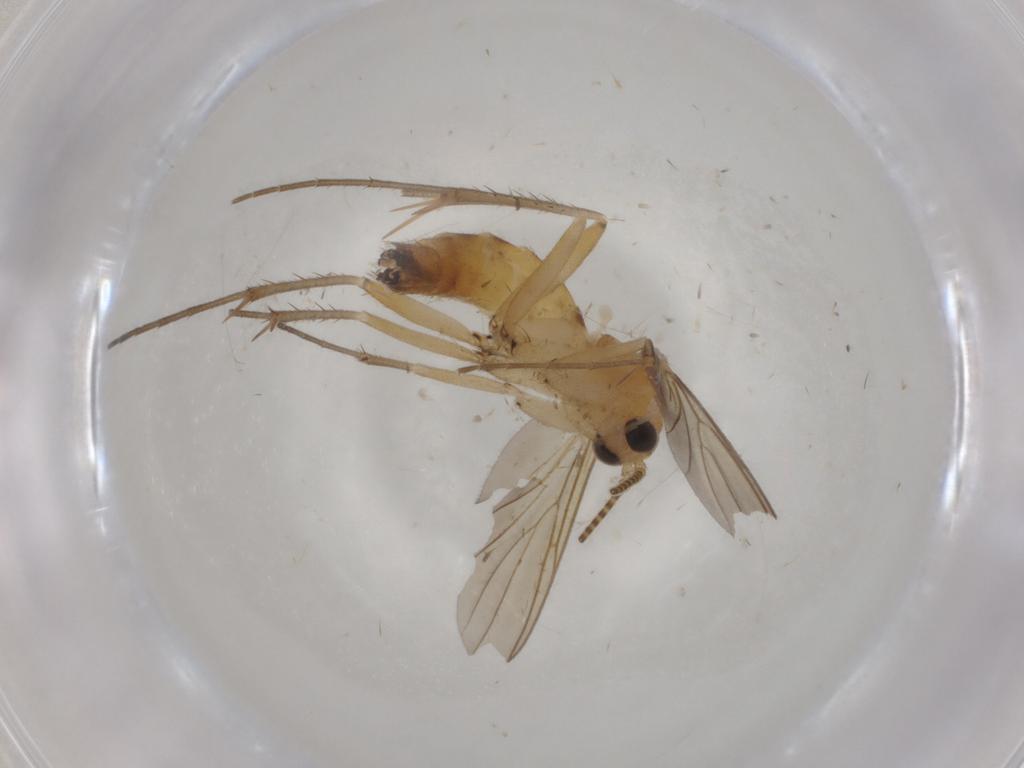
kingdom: Animalia
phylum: Arthropoda
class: Insecta
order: Diptera
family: Mycetophilidae
